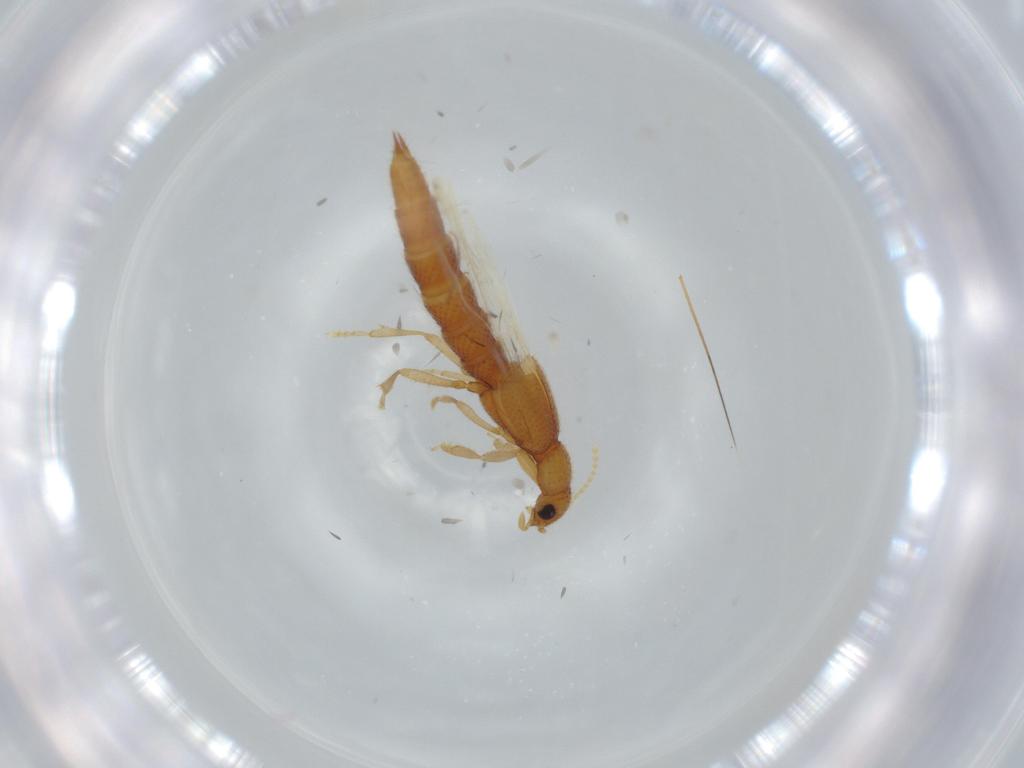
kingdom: Animalia
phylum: Arthropoda
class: Insecta
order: Coleoptera
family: Staphylinidae
